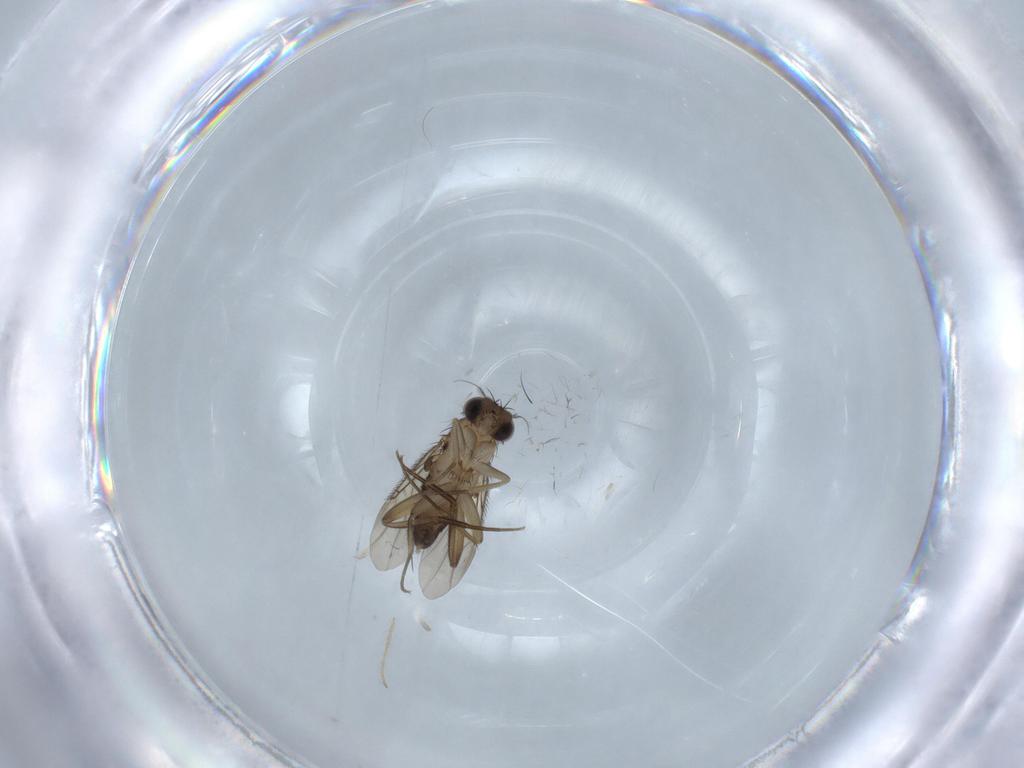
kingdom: Animalia
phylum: Arthropoda
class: Insecta
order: Diptera
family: Phoridae
